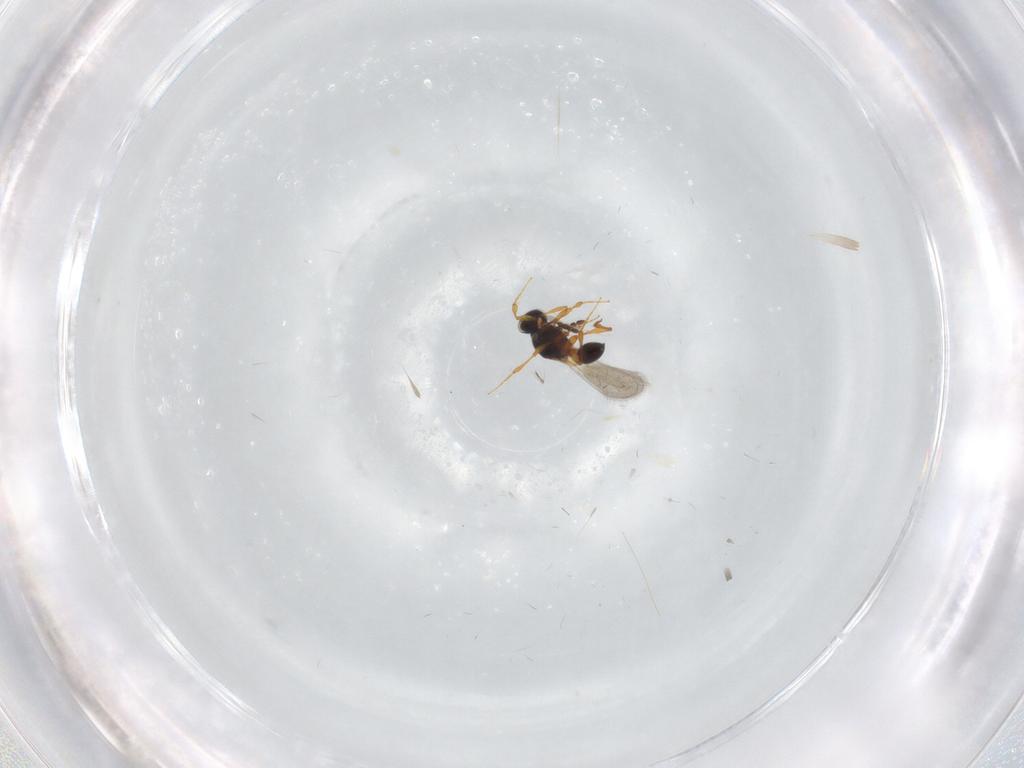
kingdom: Animalia
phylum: Arthropoda
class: Insecta
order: Hymenoptera
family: Platygastridae
